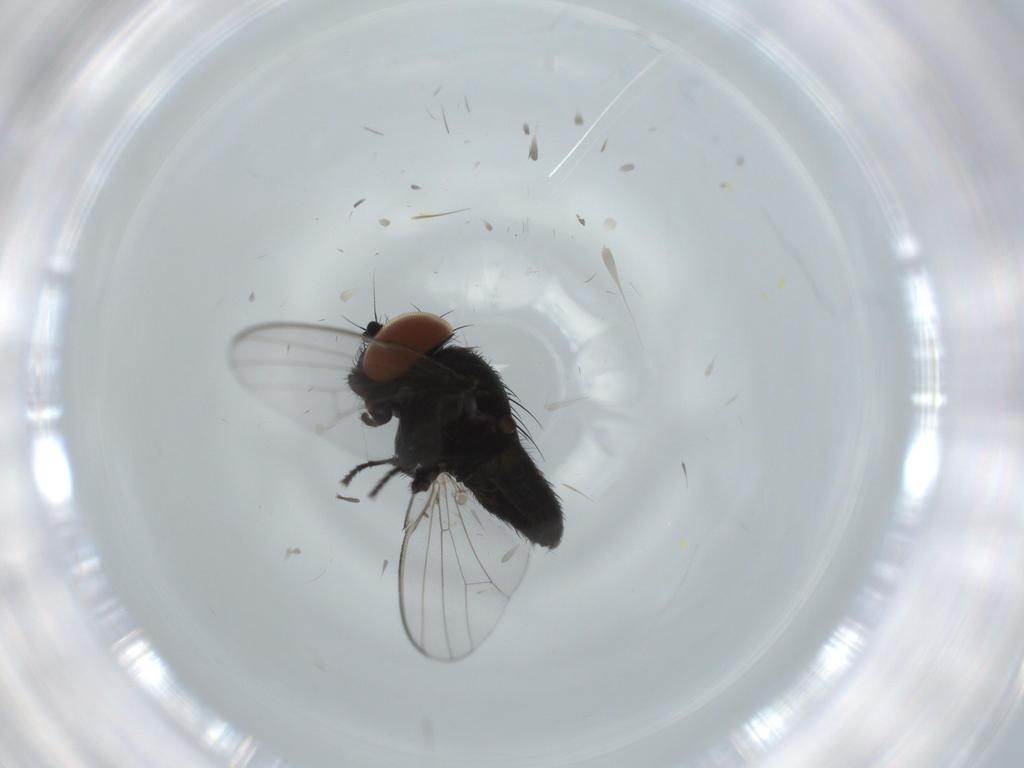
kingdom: Animalia
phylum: Arthropoda
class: Insecta
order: Diptera
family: Milichiidae
